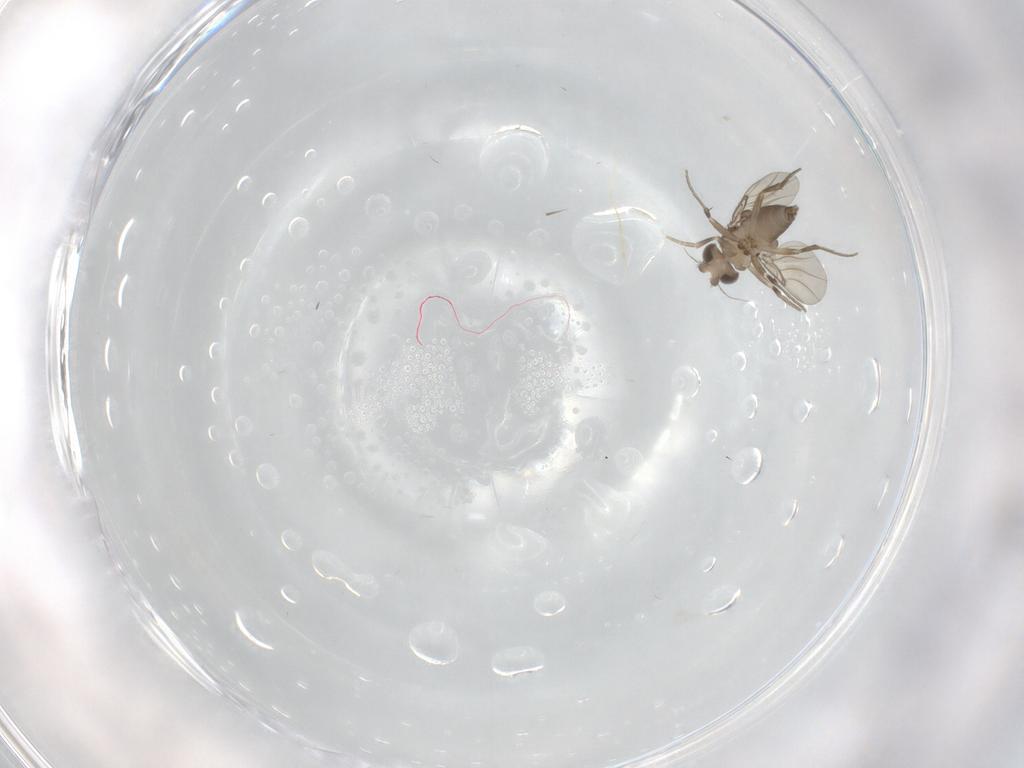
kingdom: Animalia
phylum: Arthropoda
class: Insecta
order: Diptera
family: Phoridae
